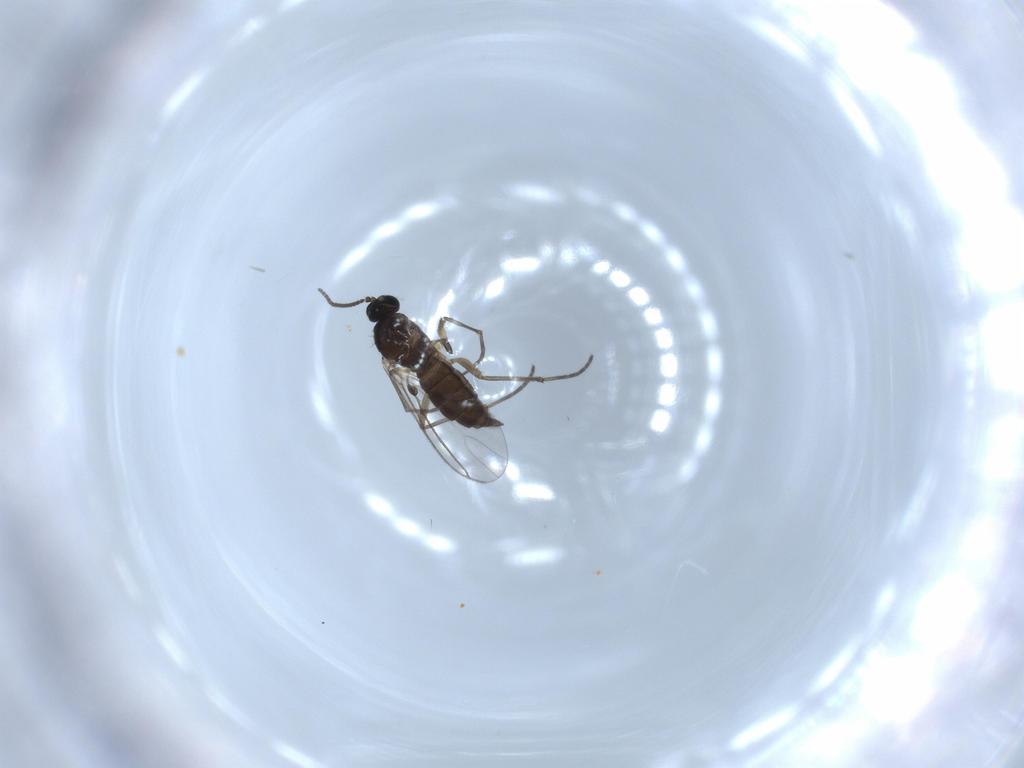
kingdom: Animalia
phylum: Arthropoda
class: Insecta
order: Diptera
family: Sciaridae
